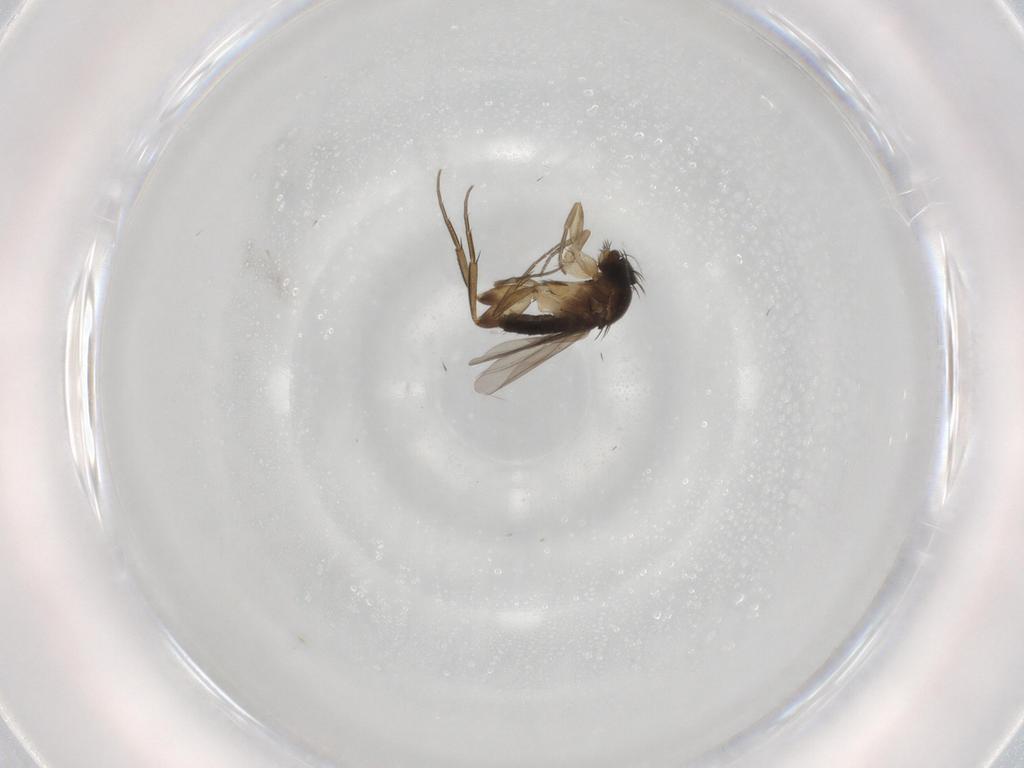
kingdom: Animalia
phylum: Arthropoda
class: Insecta
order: Diptera
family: Phoridae
